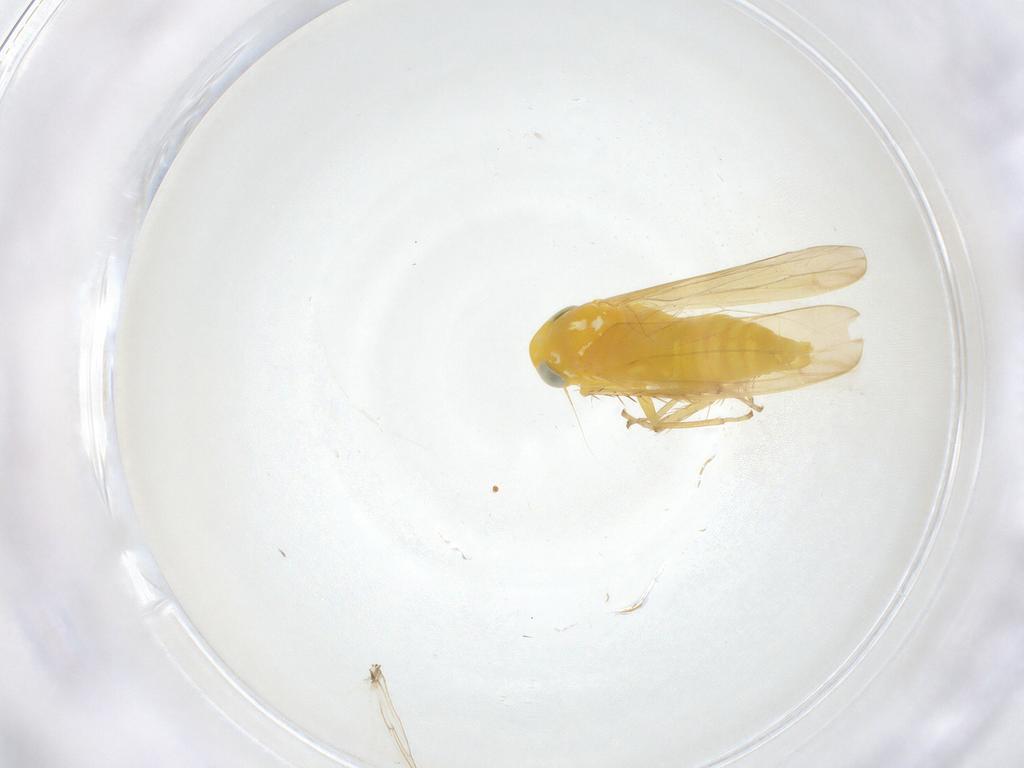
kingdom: Animalia
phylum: Arthropoda
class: Insecta
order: Hemiptera
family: Cicadellidae
